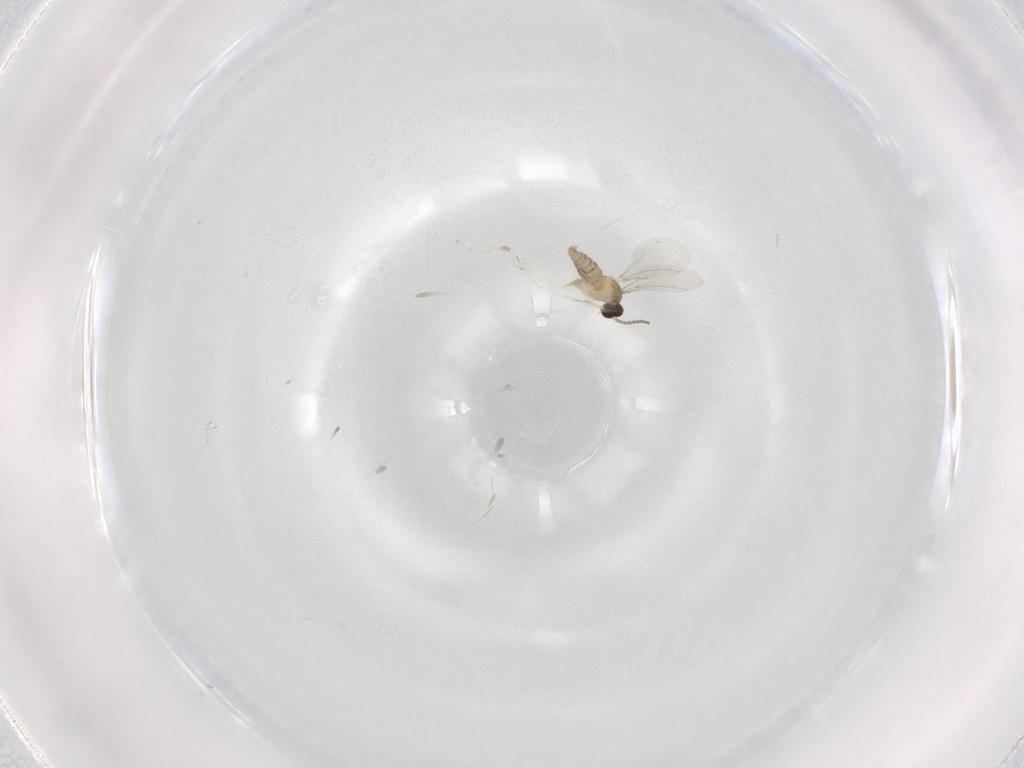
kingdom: Animalia
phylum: Arthropoda
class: Insecta
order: Diptera
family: Cecidomyiidae
